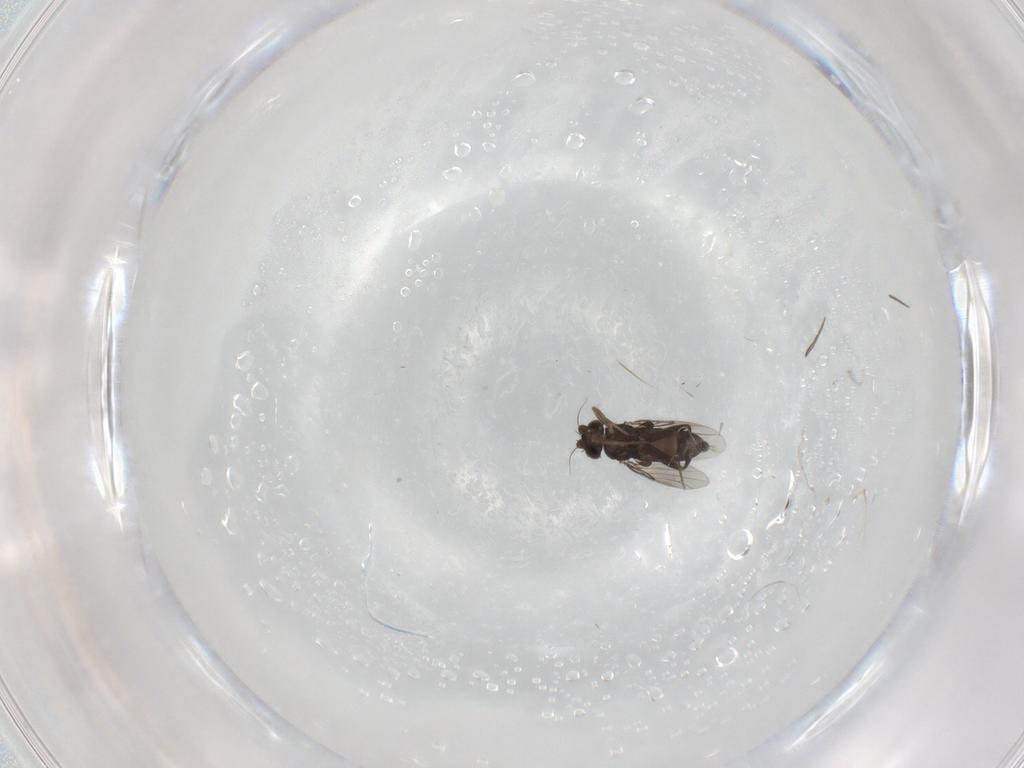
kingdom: Animalia
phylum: Arthropoda
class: Insecta
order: Diptera
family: Phoridae
